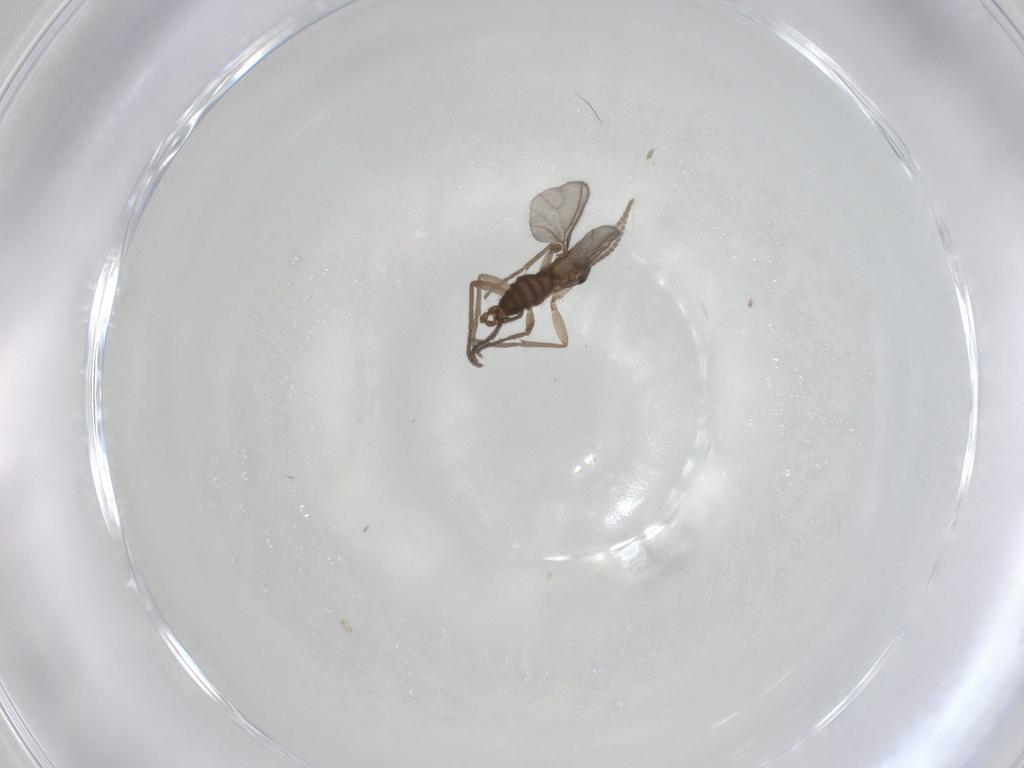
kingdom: Animalia
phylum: Arthropoda
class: Insecta
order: Diptera
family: Sciaridae
